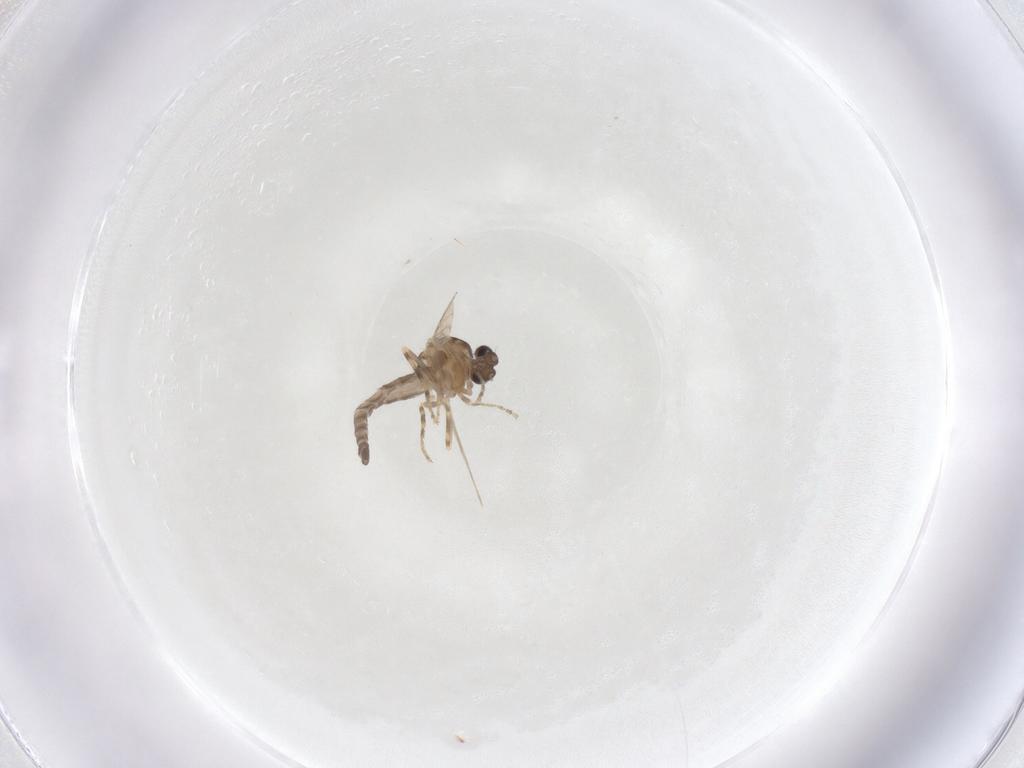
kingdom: Animalia
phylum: Arthropoda
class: Insecta
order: Diptera
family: Ceratopogonidae
